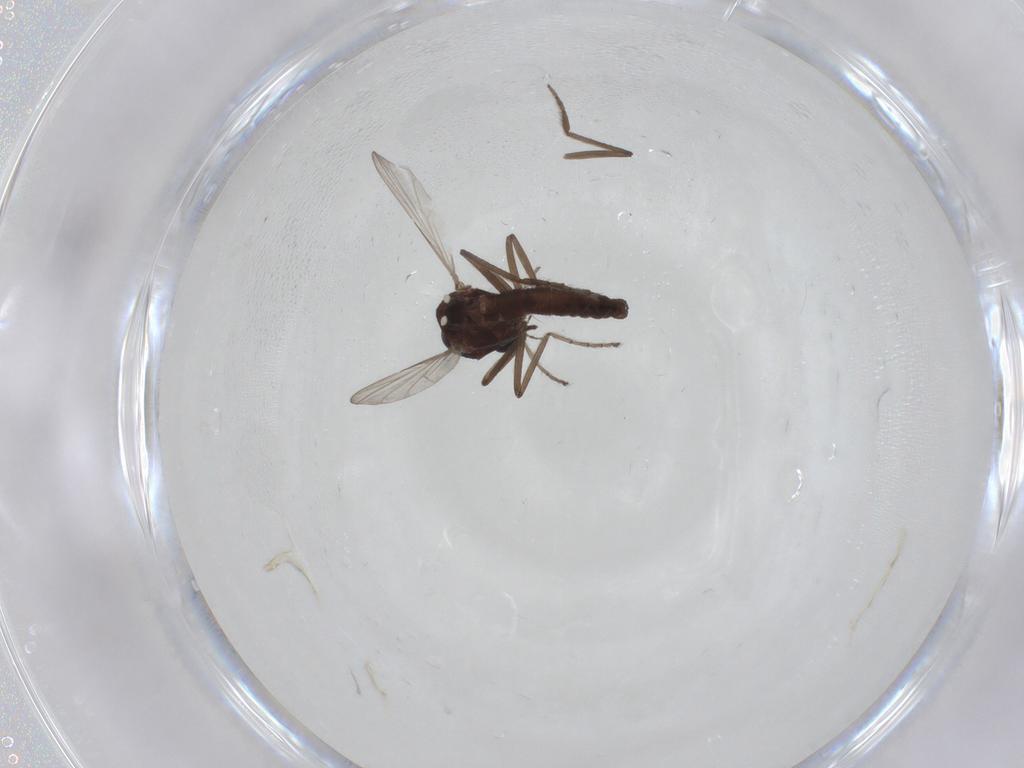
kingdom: Animalia
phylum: Arthropoda
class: Insecta
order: Diptera
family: Ceratopogonidae
